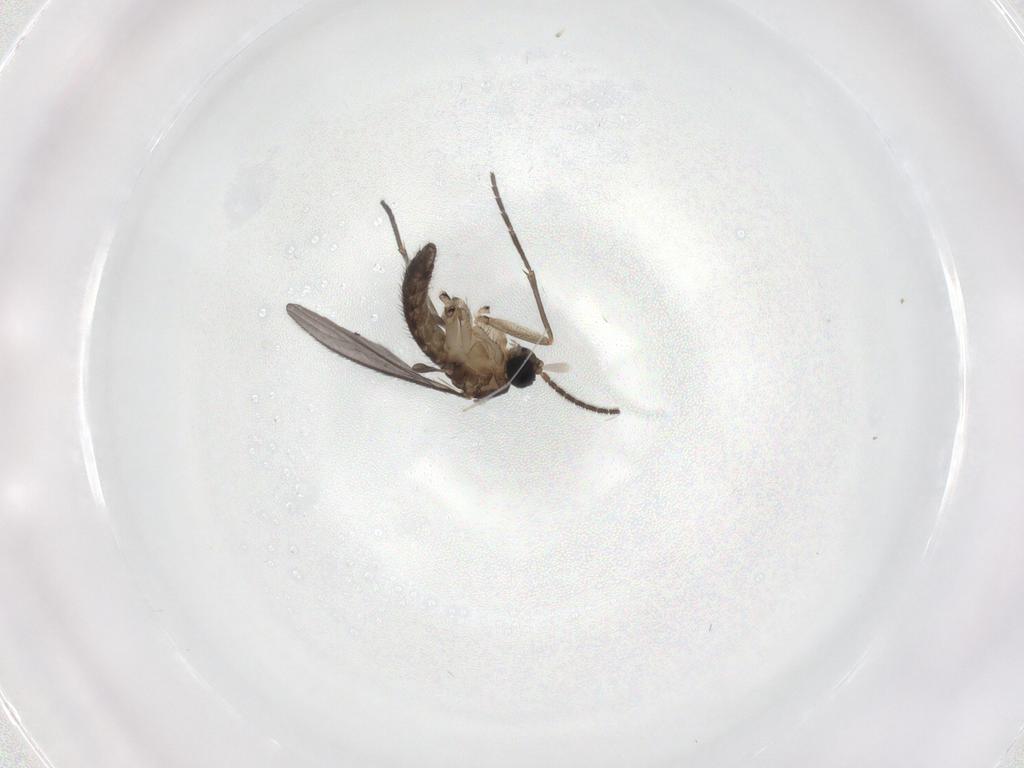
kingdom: Animalia
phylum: Arthropoda
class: Insecta
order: Diptera
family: Sciaridae
